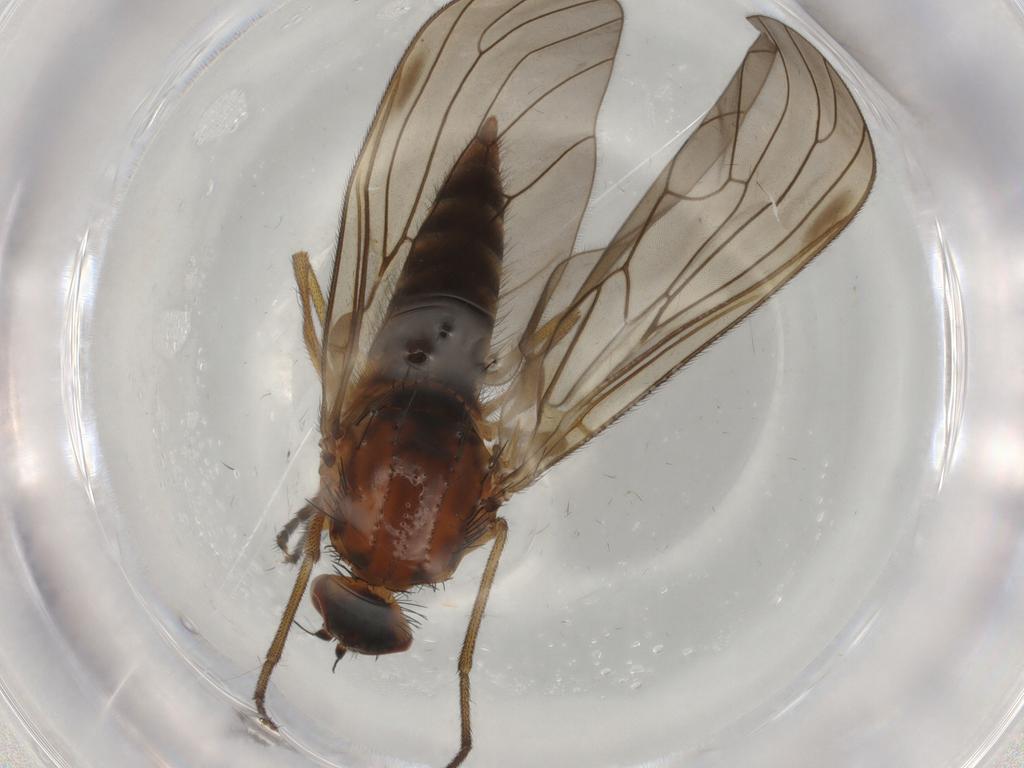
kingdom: Animalia
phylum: Arthropoda
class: Insecta
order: Diptera
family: Brachystomatidae
